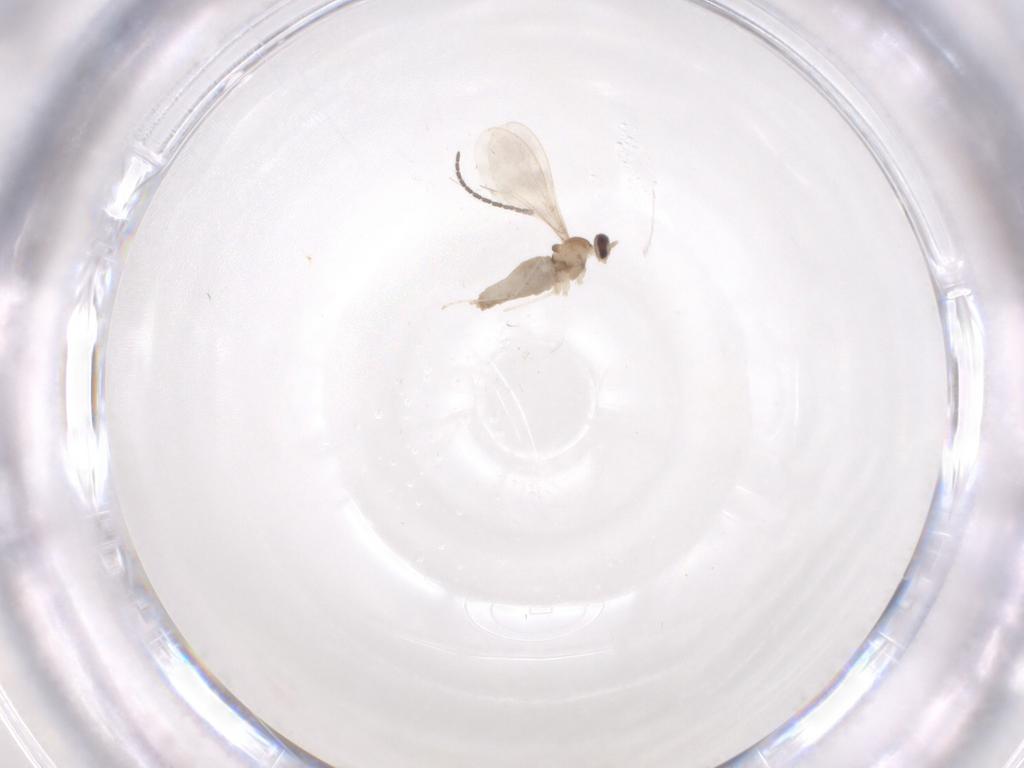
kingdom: Animalia
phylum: Arthropoda
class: Insecta
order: Diptera
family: Cecidomyiidae
